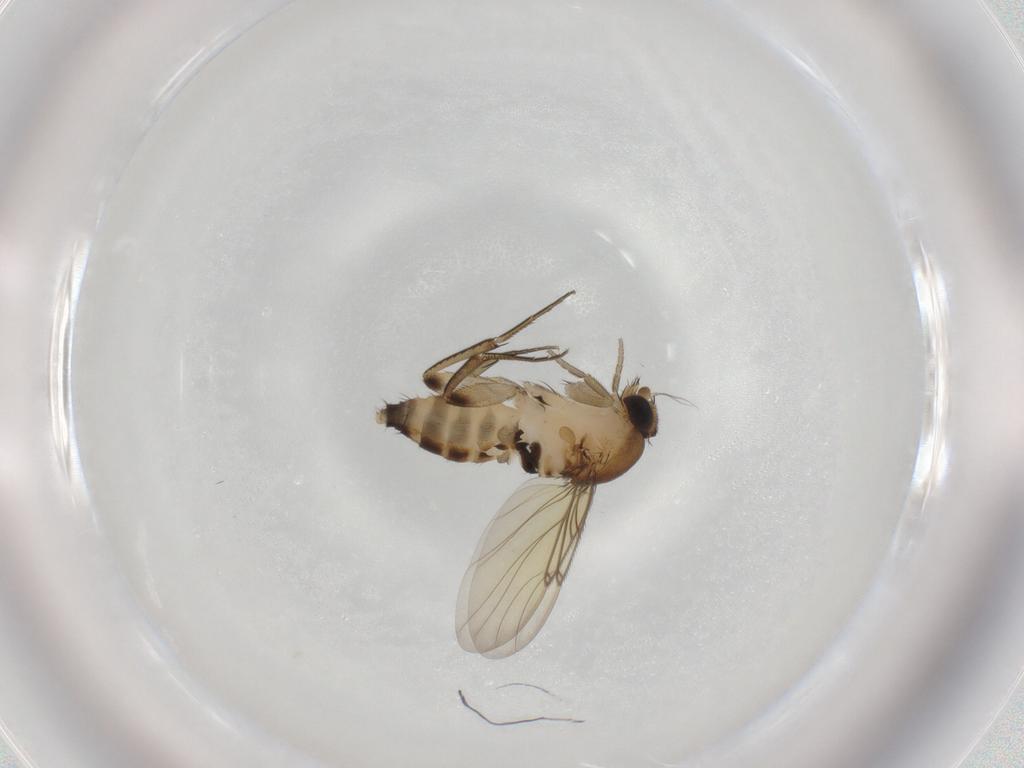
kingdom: Animalia
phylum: Arthropoda
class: Insecta
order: Diptera
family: Phoridae
